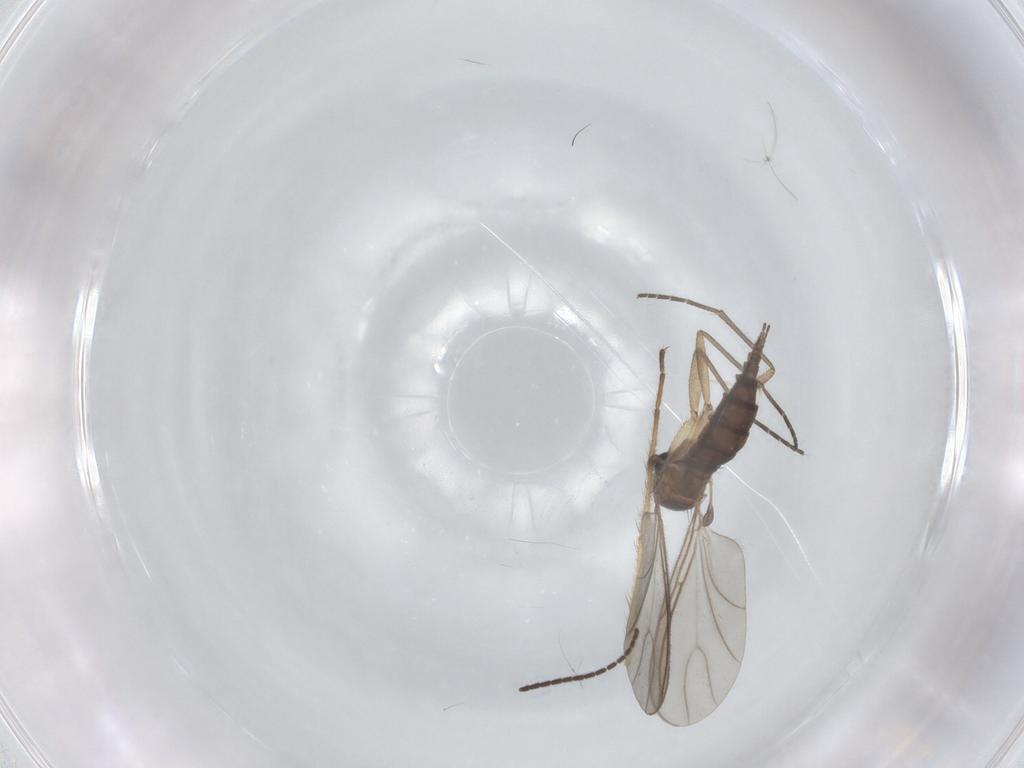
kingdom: Animalia
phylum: Arthropoda
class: Insecta
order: Diptera
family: Sciaridae
